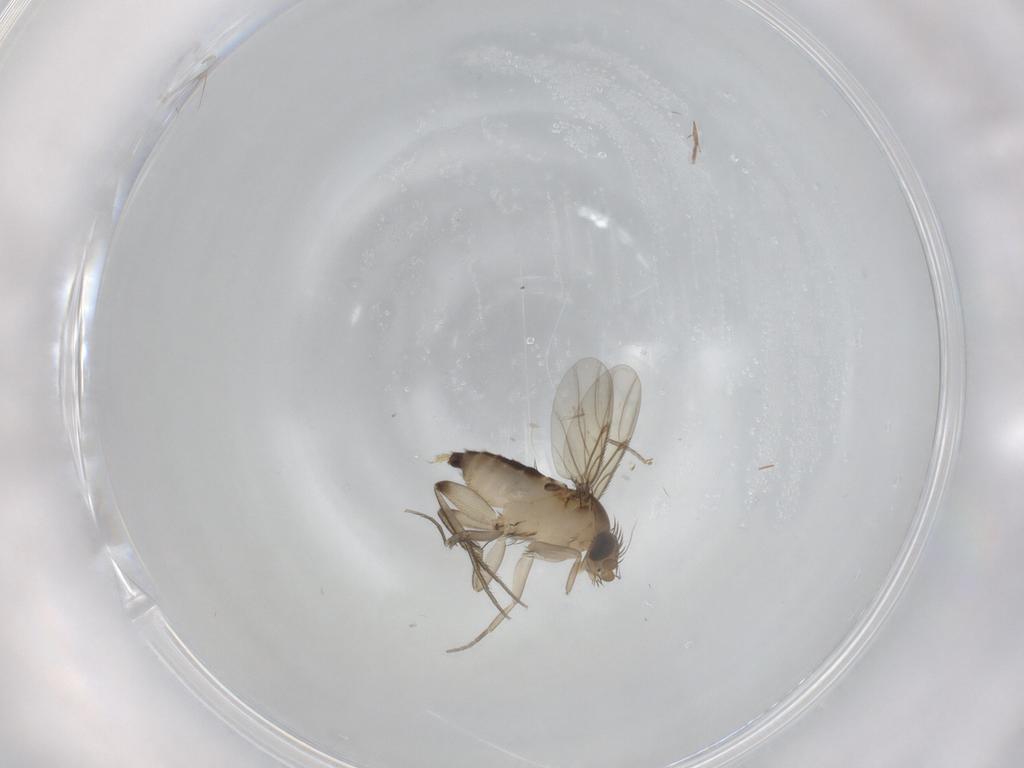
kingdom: Animalia
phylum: Arthropoda
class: Insecta
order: Diptera
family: Phoridae
